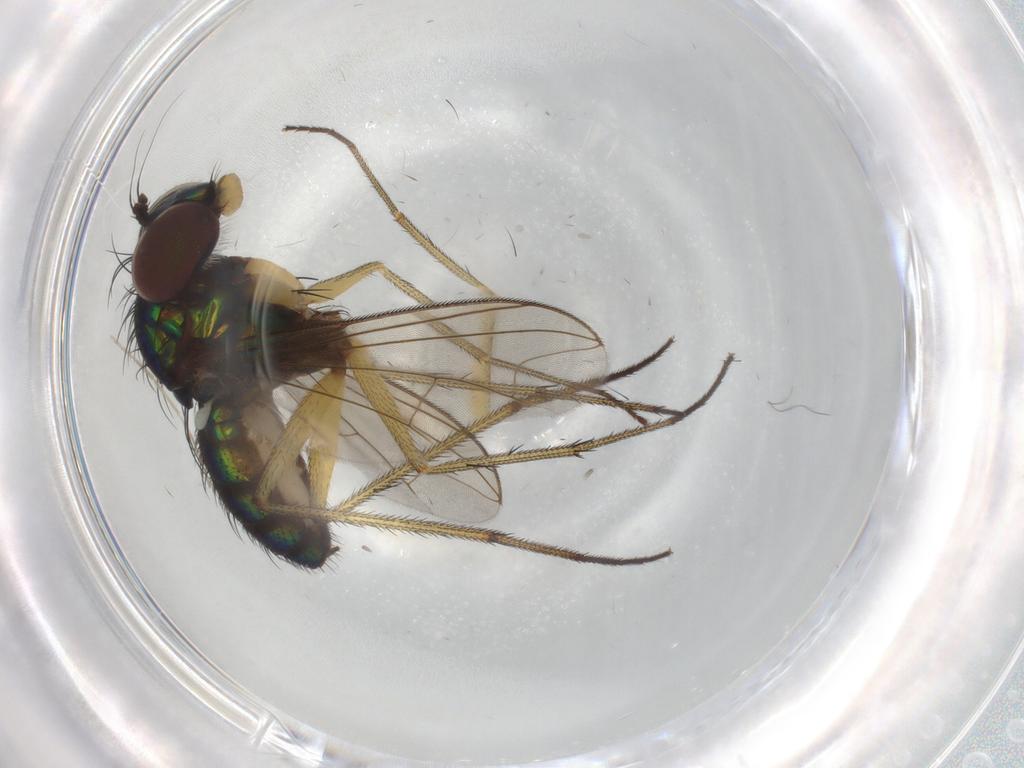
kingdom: Animalia
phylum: Arthropoda
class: Insecta
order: Diptera
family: Dolichopodidae
